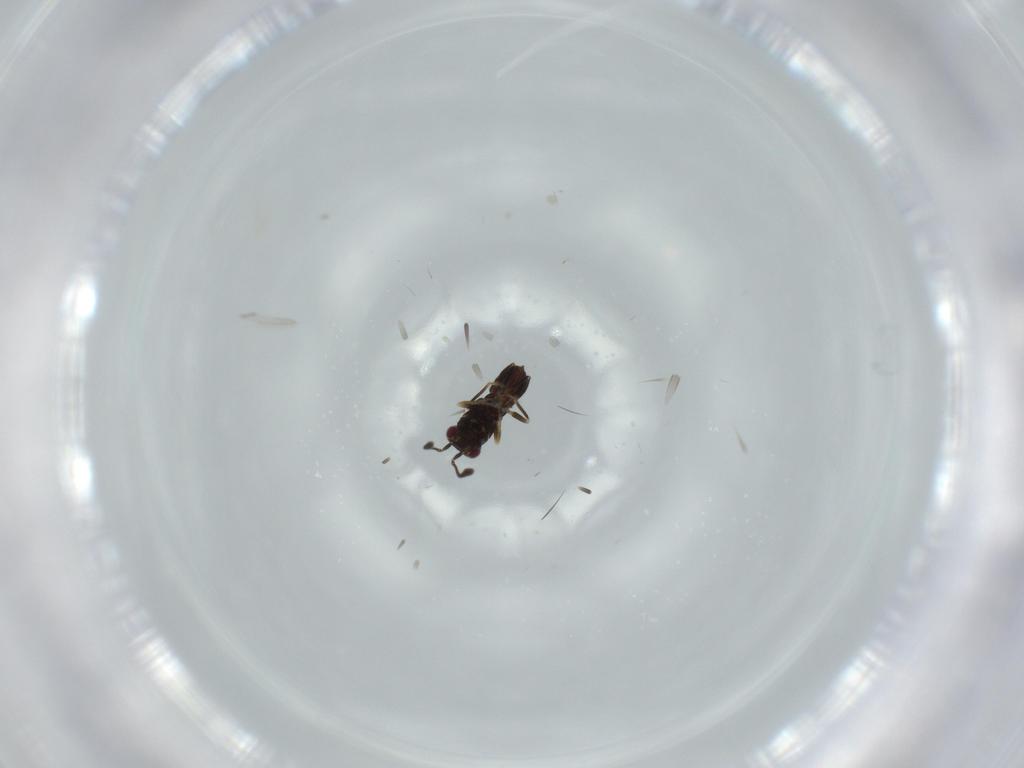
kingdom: Animalia
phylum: Arthropoda
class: Insecta
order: Hymenoptera
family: Mymaridae
